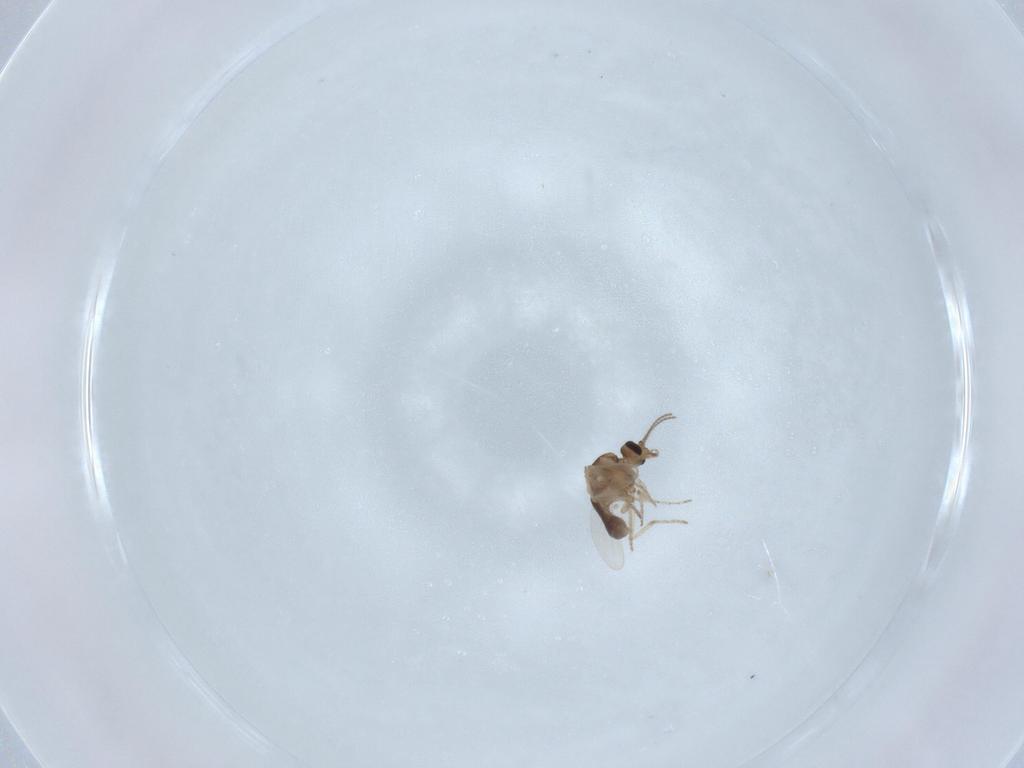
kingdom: Animalia
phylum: Arthropoda
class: Insecta
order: Diptera
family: Ceratopogonidae
